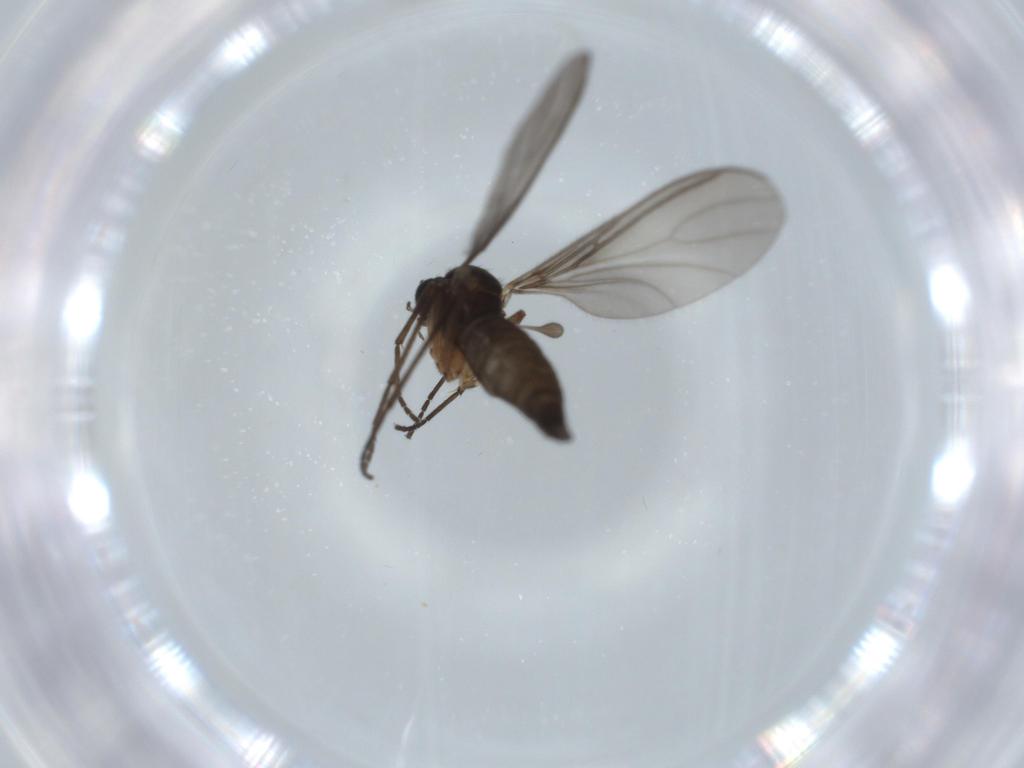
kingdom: Animalia
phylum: Arthropoda
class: Insecta
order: Diptera
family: Sciaridae
